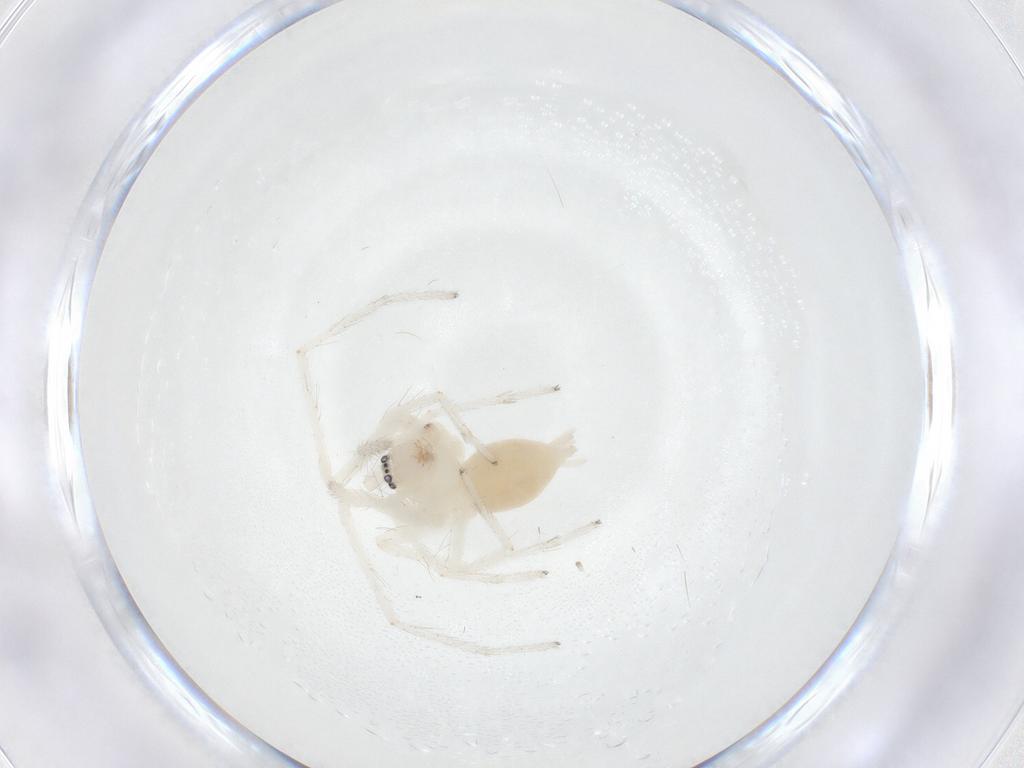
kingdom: Animalia
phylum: Arthropoda
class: Arachnida
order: Araneae
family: Anyphaenidae
